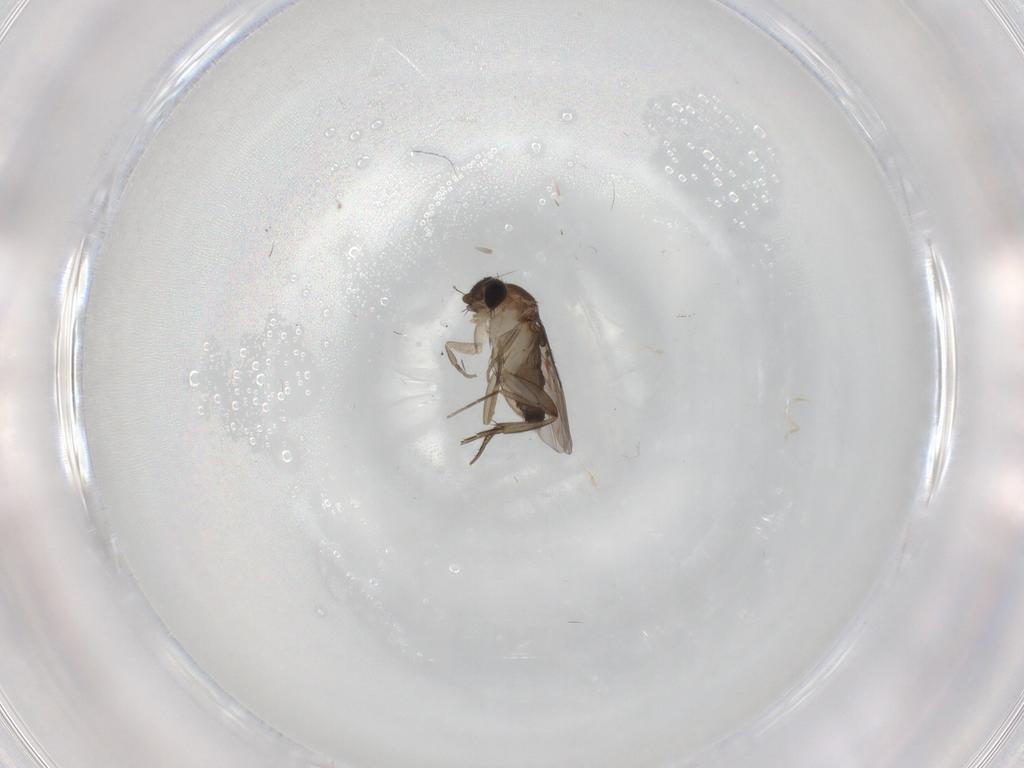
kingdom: Animalia
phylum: Arthropoda
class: Insecta
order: Diptera
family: Phoridae
